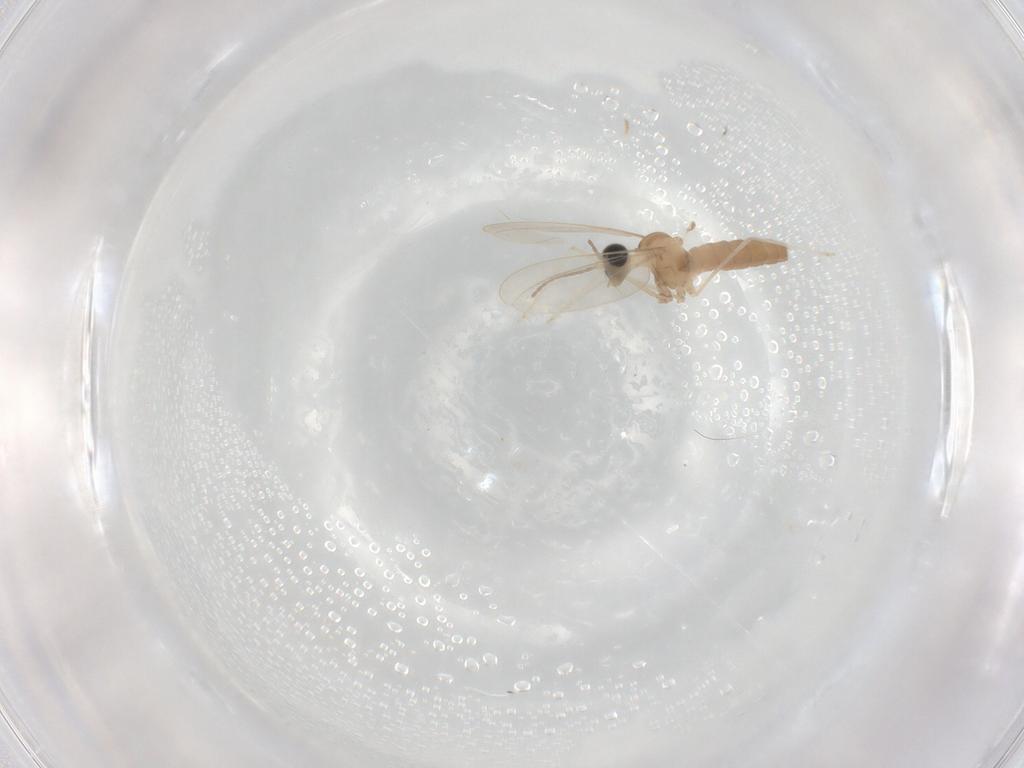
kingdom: Animalia
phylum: Arthropoda
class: Insecta
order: Diptera
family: Cecidomyiidae
